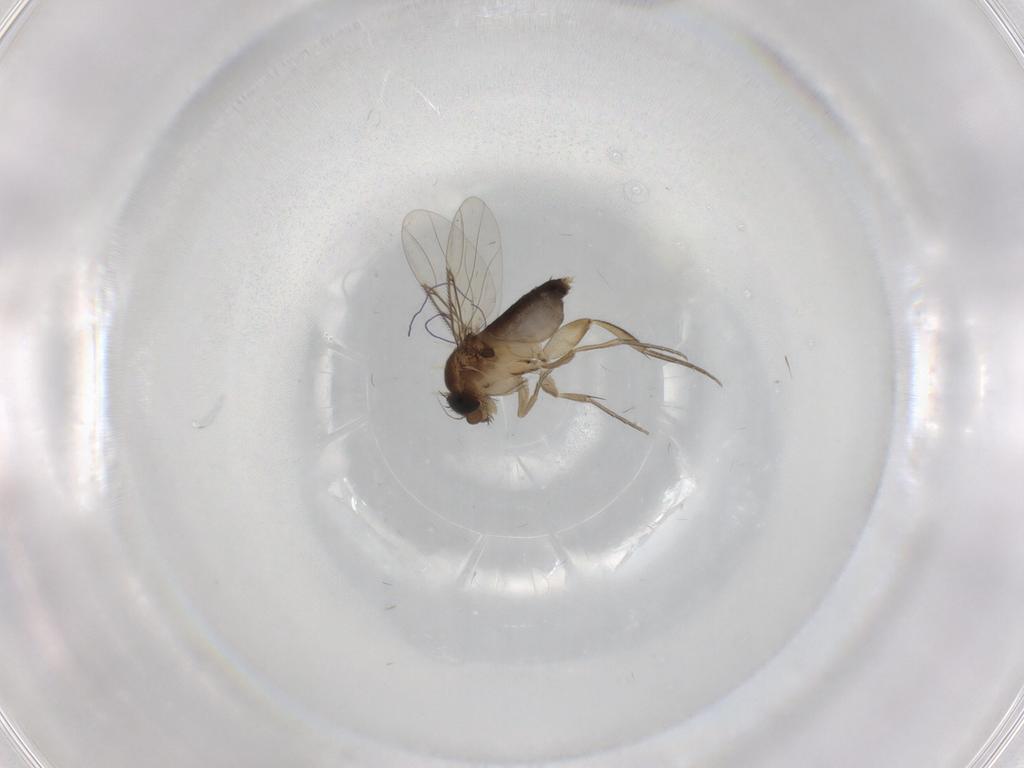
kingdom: Animalia
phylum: Arthropoda
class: Insecta
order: Diptera
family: Phoridae
